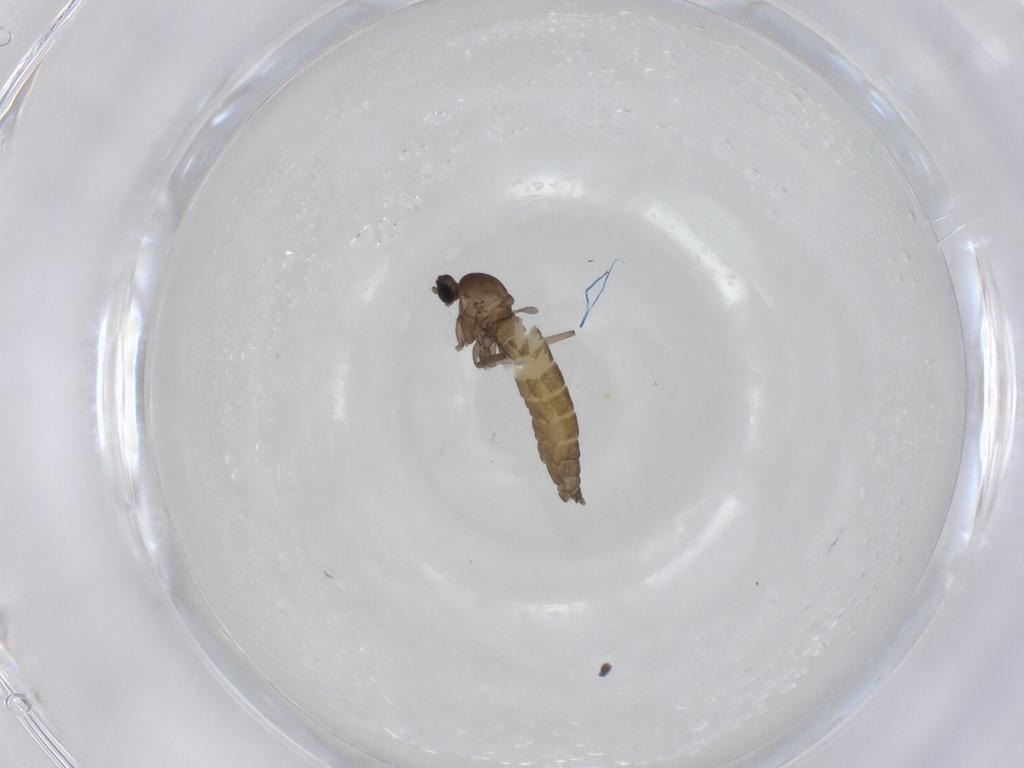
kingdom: Animalia
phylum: Arthropoda
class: Insecta
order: Diptera
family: Cecidomyiidae
